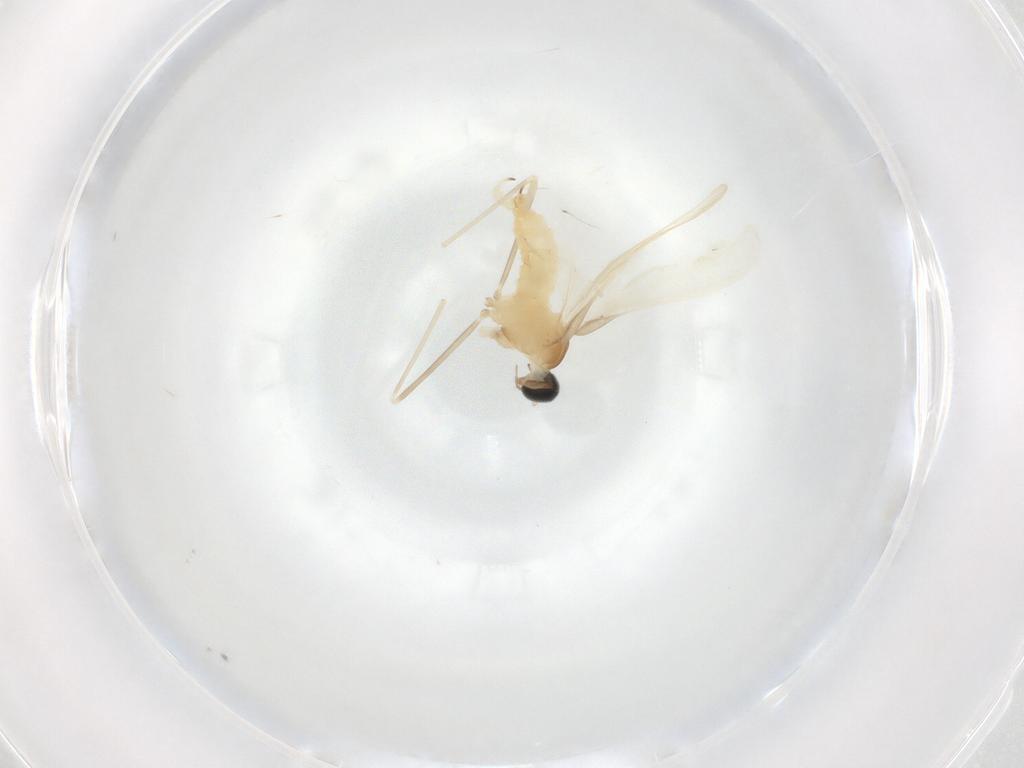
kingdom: Animalia
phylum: Arthropoda
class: Insecta
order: Diptera
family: Cecidomyiidae
